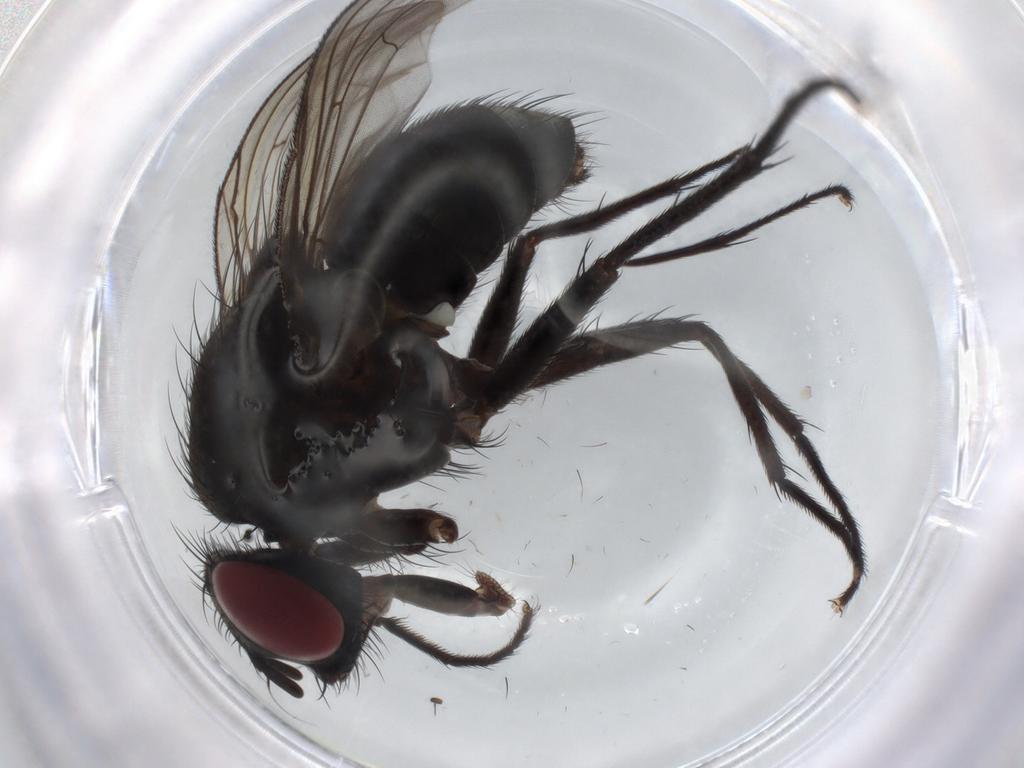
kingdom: Animalia
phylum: Arthropoda
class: Insecta
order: Diptera
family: Muscidae
